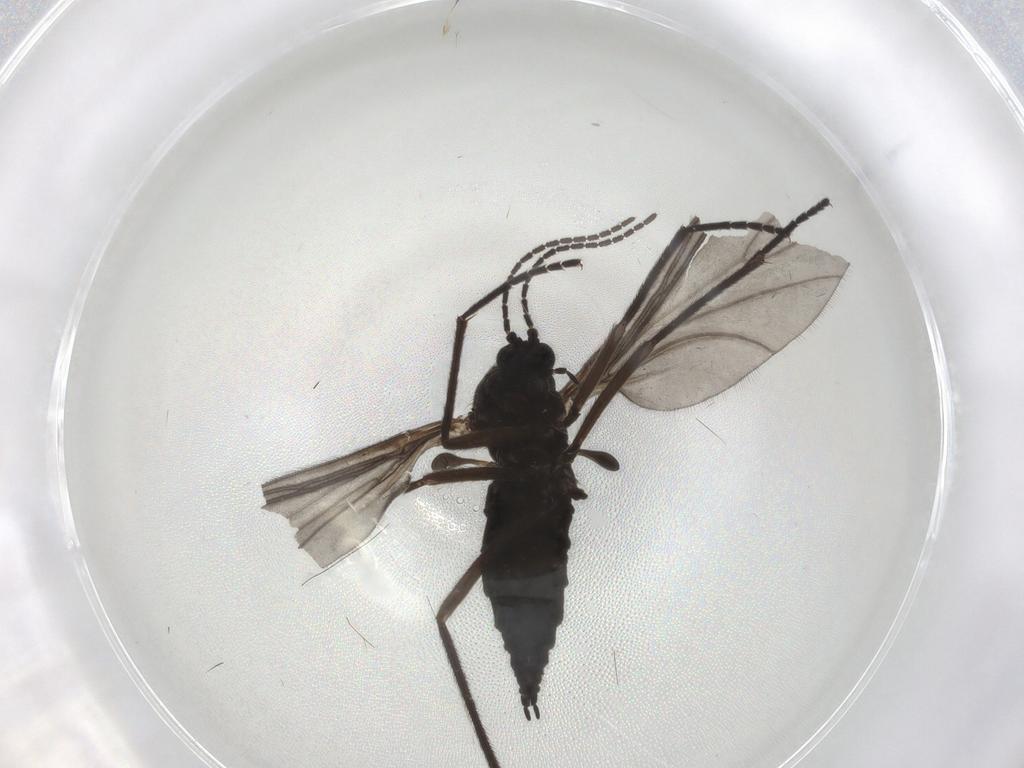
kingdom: Animalia
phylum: Arthropoda
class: Insecta
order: Diptera
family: Sciaridae
